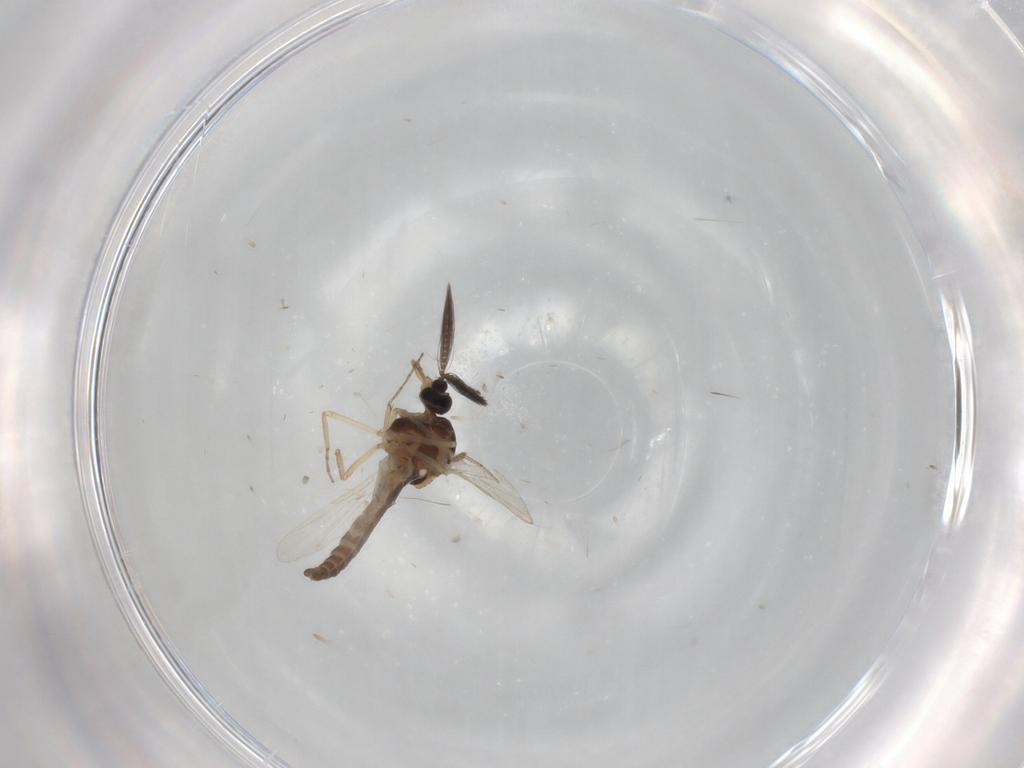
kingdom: Animalia
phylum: Arthropoda
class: Insecta
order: Diptera
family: Ceratopogonidae
